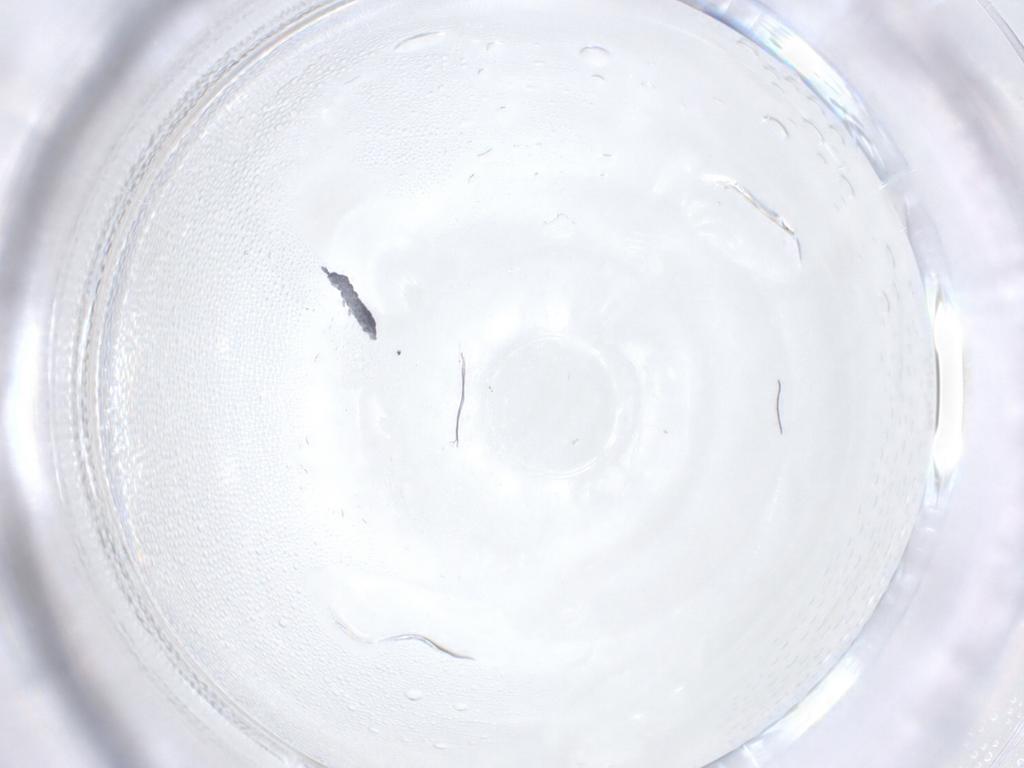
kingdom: Animalia
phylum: Arthropoda
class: Collembola
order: Poduromorpha
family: Hypogastruridae
